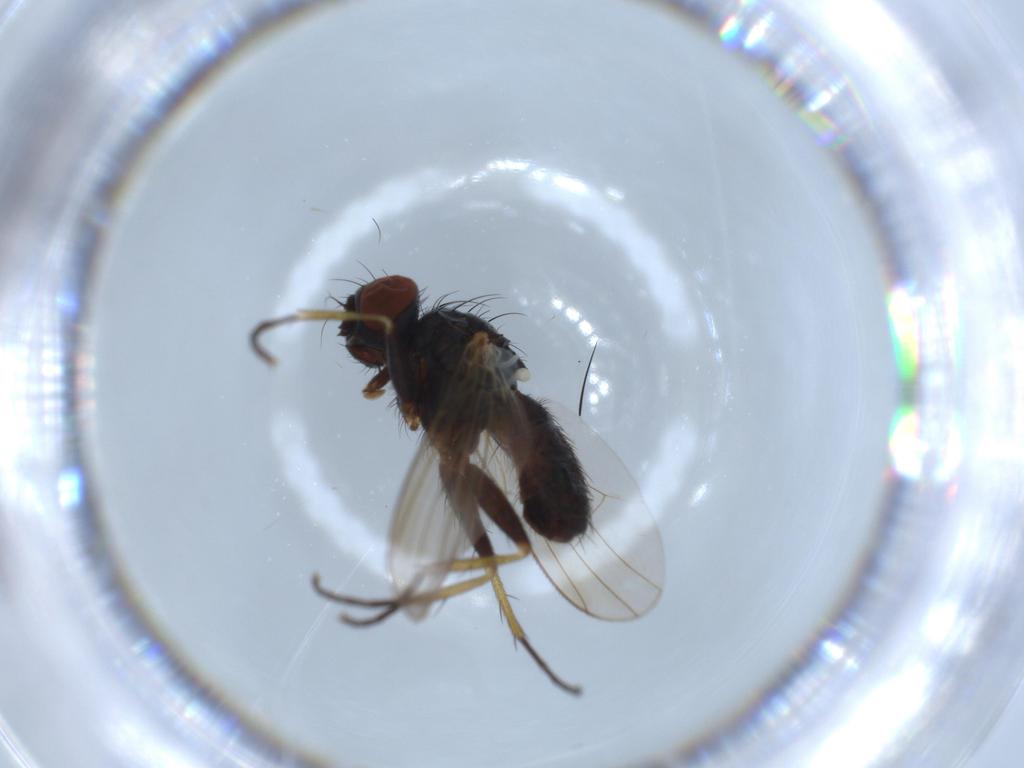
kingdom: Animalia
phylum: Arthropoda
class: Insecta
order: Diptera
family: Muscidae
